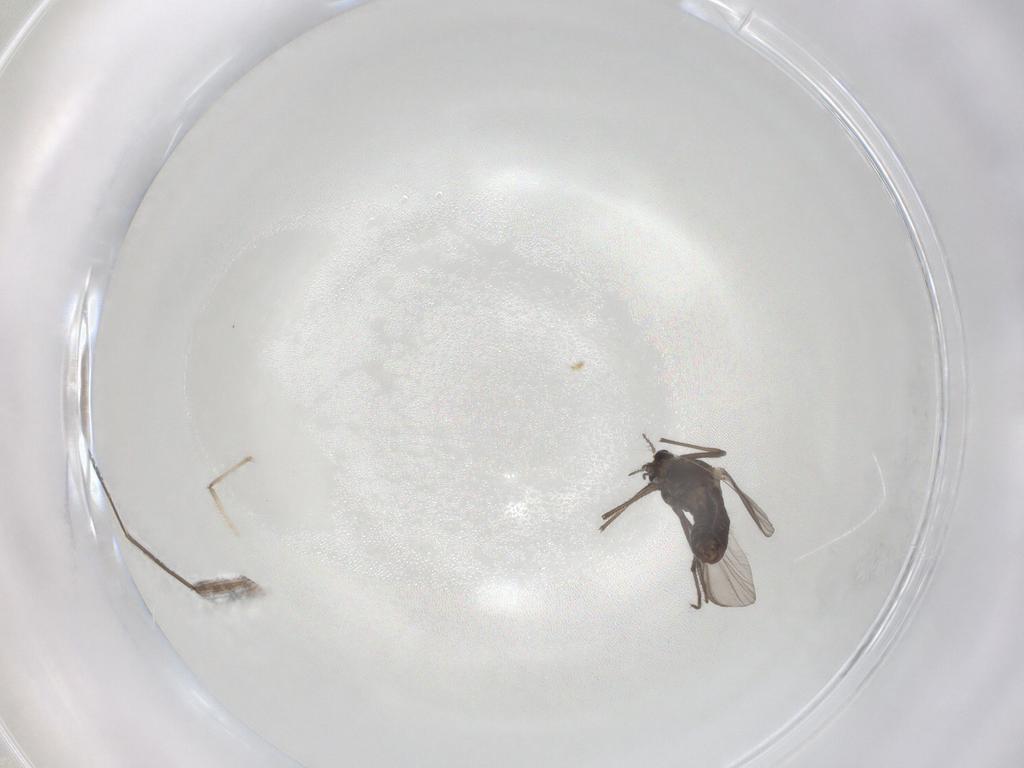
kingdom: Animalia
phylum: Arthropoda
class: Insecta
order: Diptera
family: Chironomidae
